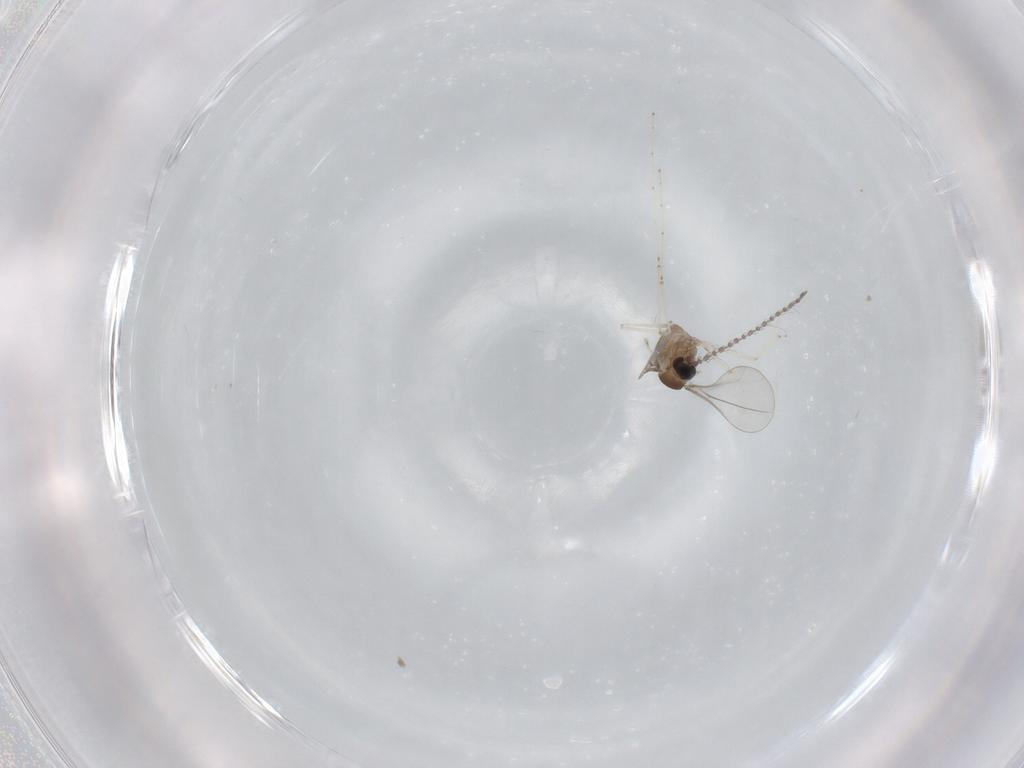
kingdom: Animalia
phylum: Arthropoda
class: Insecta
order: Diptera
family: Cecidomyiidae
